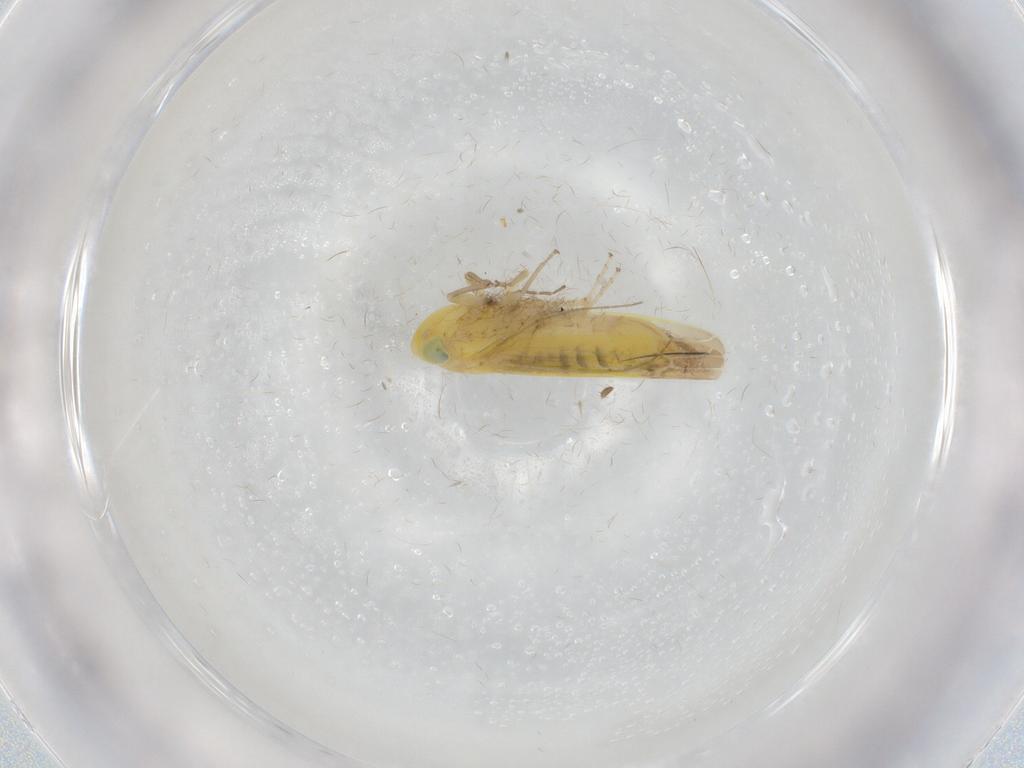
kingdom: Animalia
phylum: Arthropoda
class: Insecta
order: Hemiptera
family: Cicadellidae
